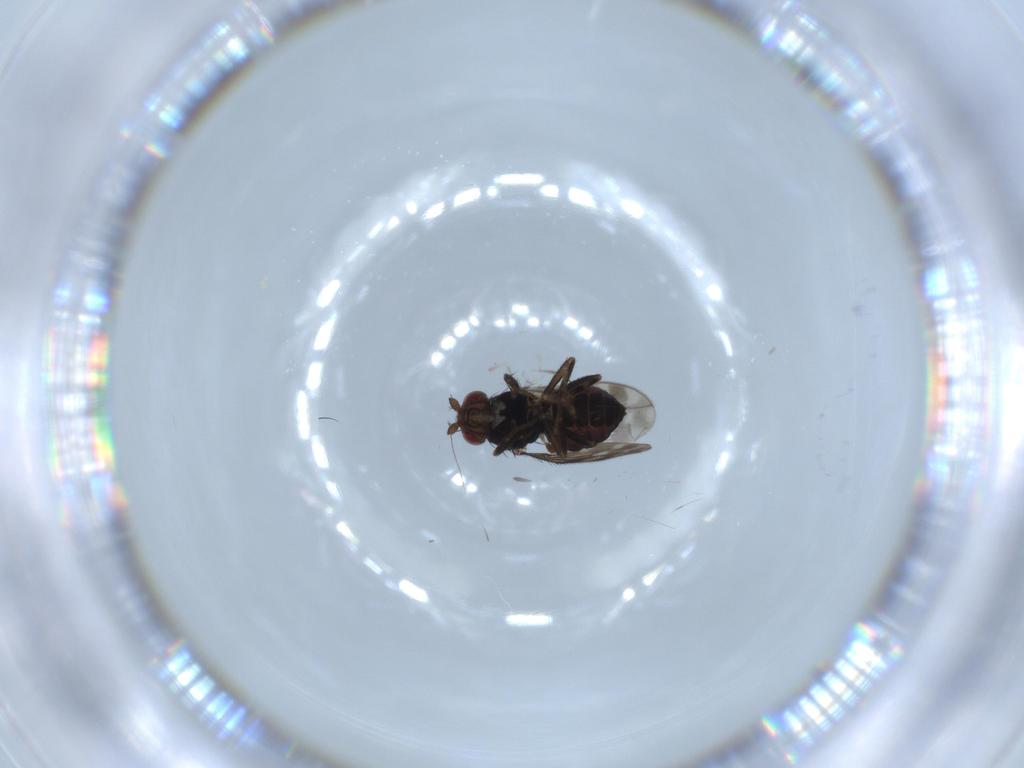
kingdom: Animalia
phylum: Arthropoda
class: Insecta
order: Diptera
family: Sphaeroceridae
